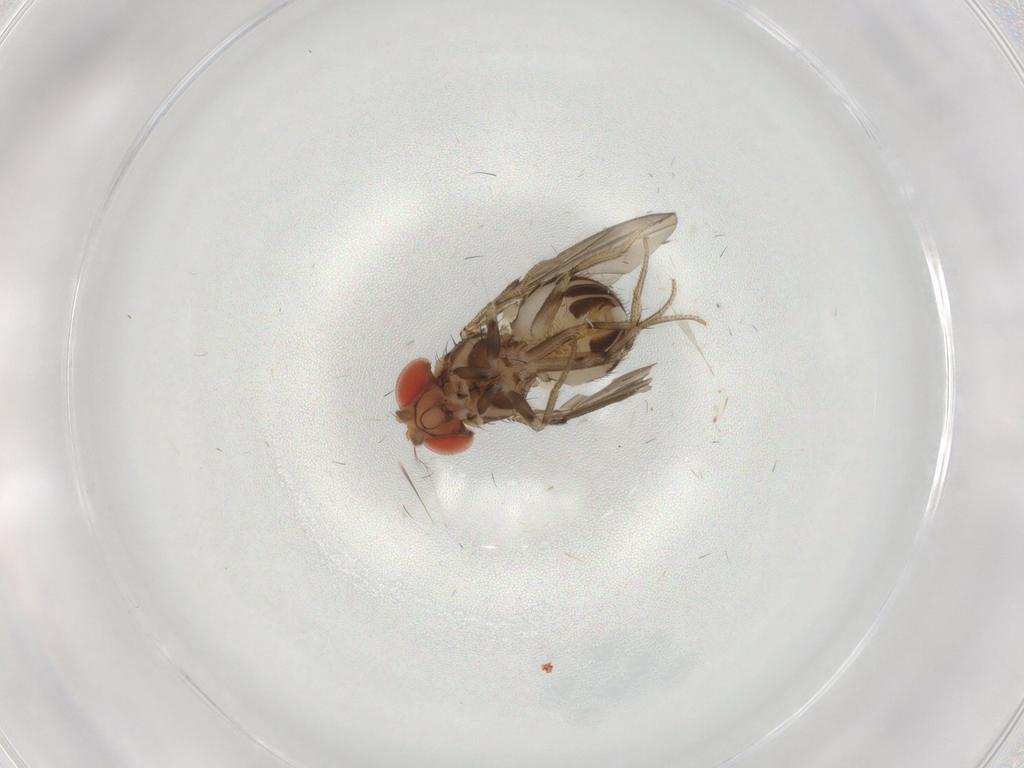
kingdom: Animalia
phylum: Arthropoda
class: Insecta
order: Diptera
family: Drosophilidae
